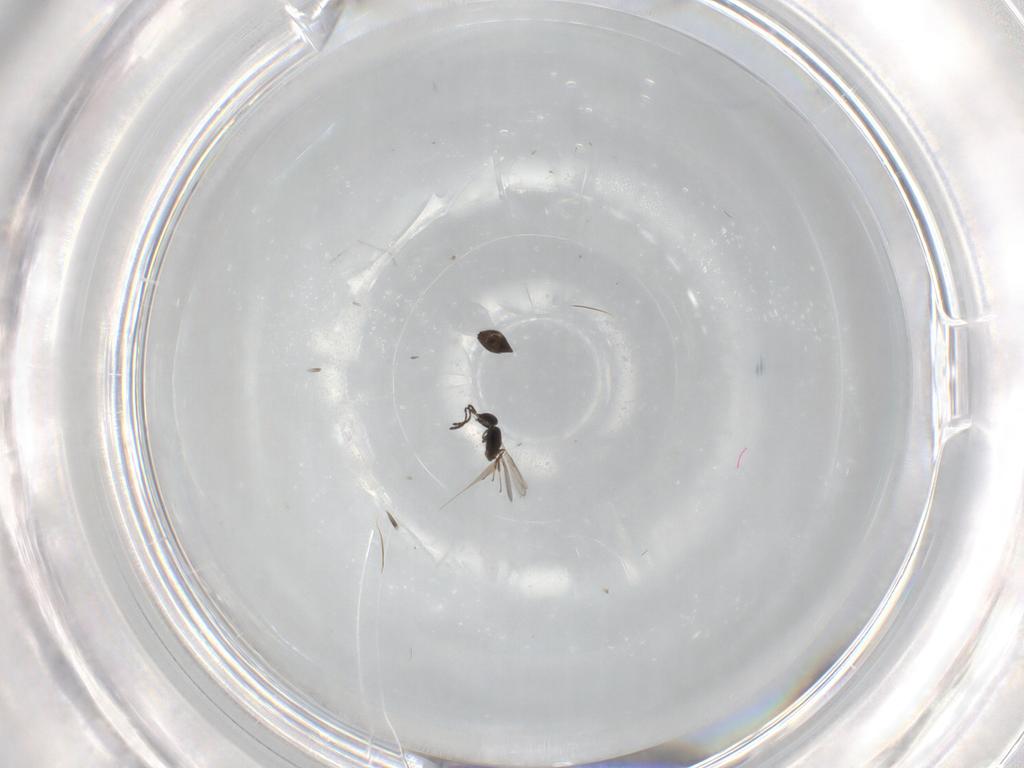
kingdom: Animalia
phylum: Arthropoda
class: Insecta
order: Hymenoptera
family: Scelionidae
